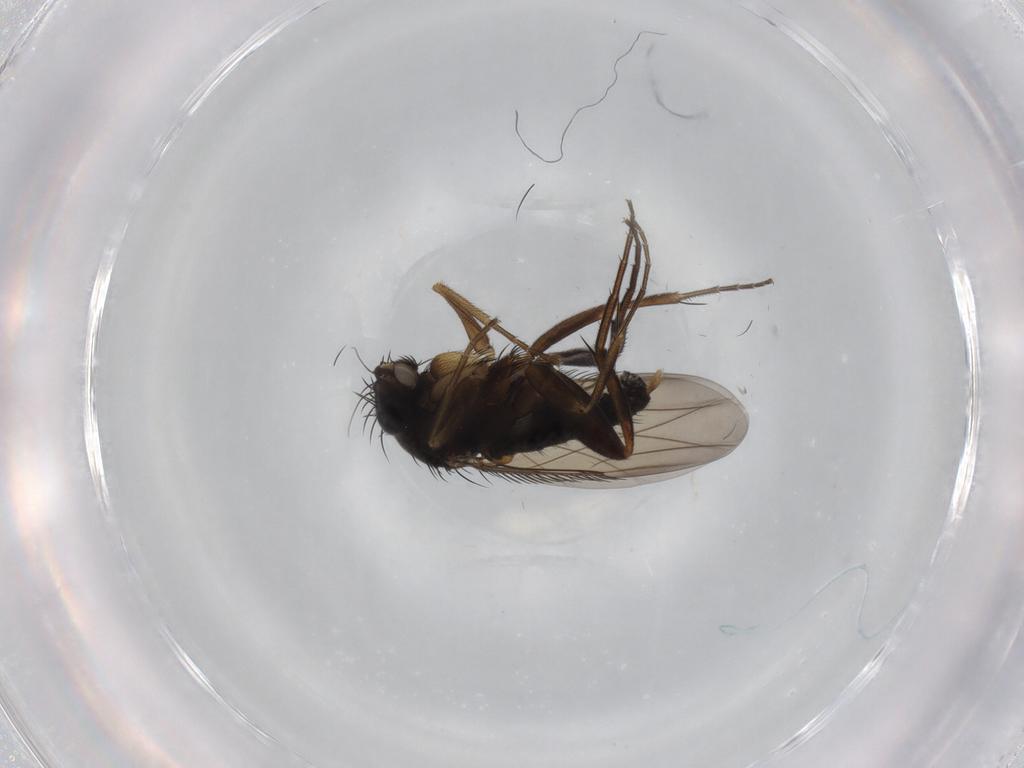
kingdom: Animalia
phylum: Arthropoda
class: Insecta
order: Diptera
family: Phoridae
